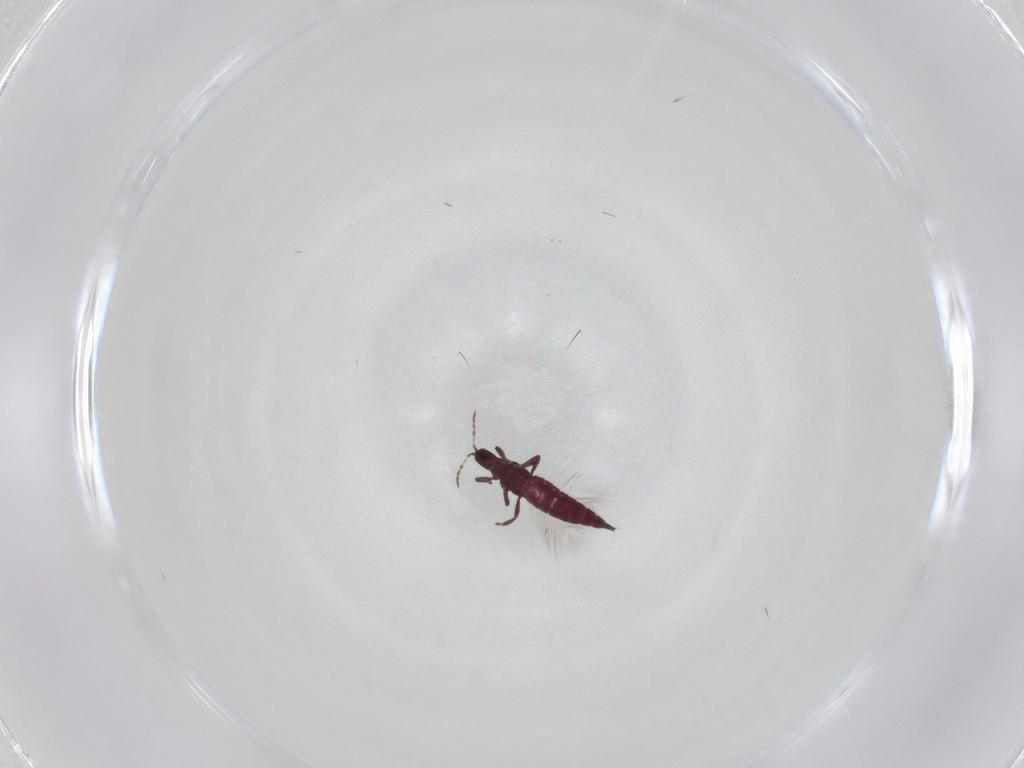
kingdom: Animalia
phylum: Arthropoda
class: Insecta
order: Thysanoptera
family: Phlaeothripidae
